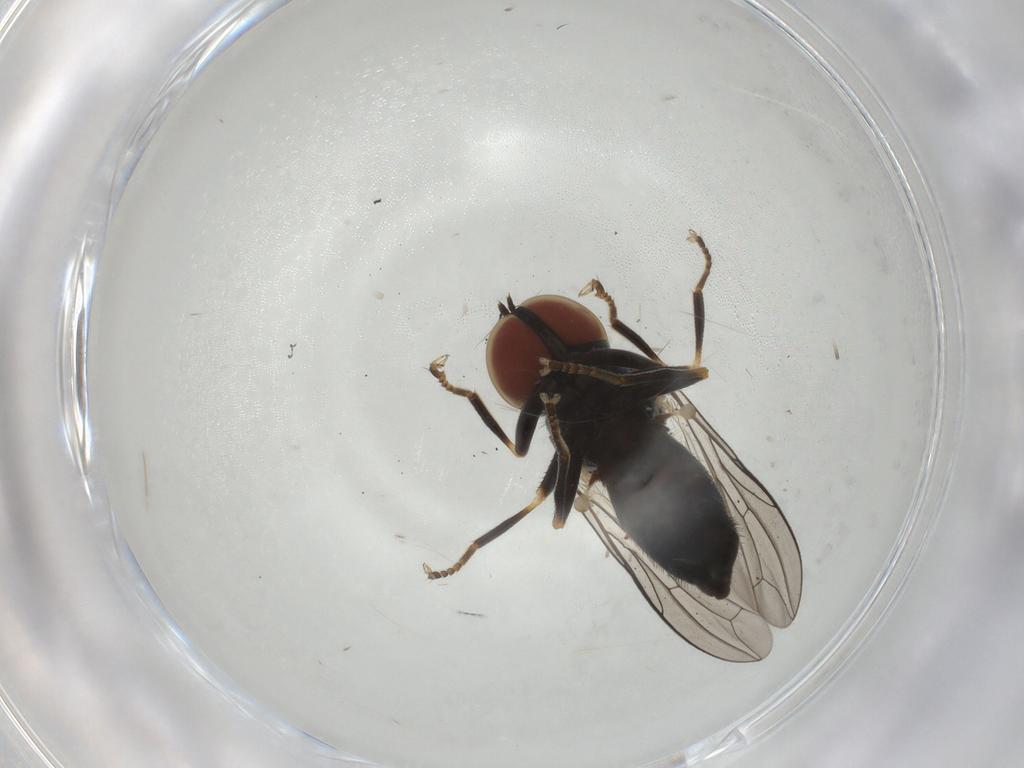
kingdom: Animalia
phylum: Arthropoda
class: Insecta
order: Diptera
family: Pipunculidae
